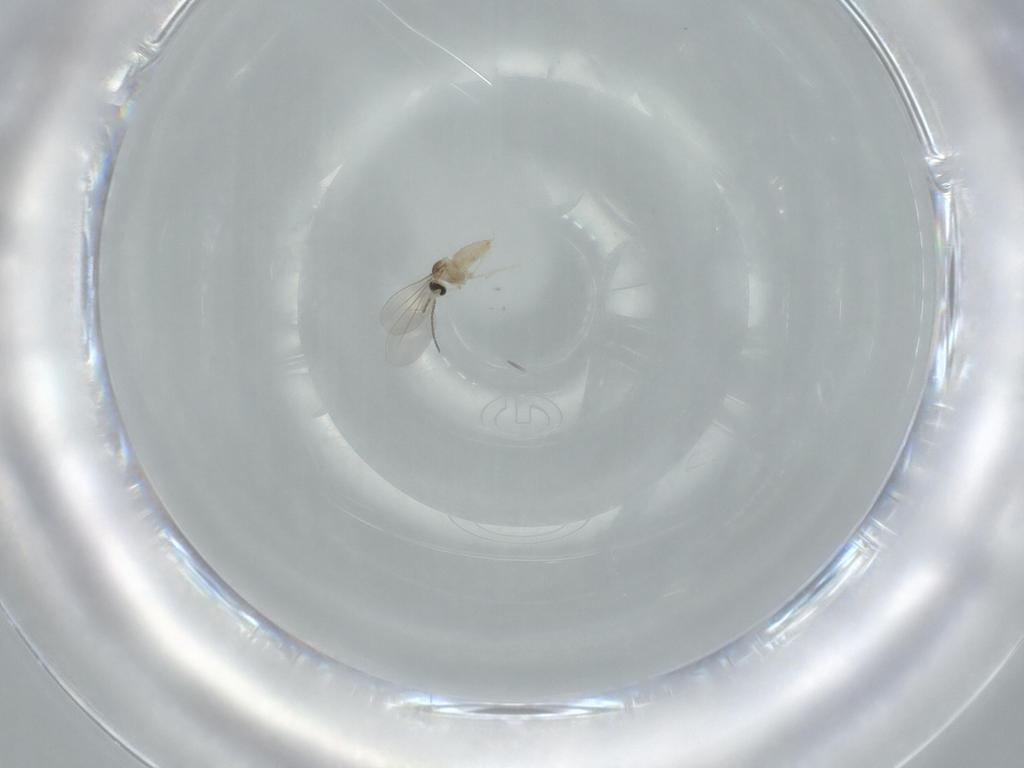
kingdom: Animalia
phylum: Arthropoda
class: Insecta
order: Diptera
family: Cecidomyiidae
